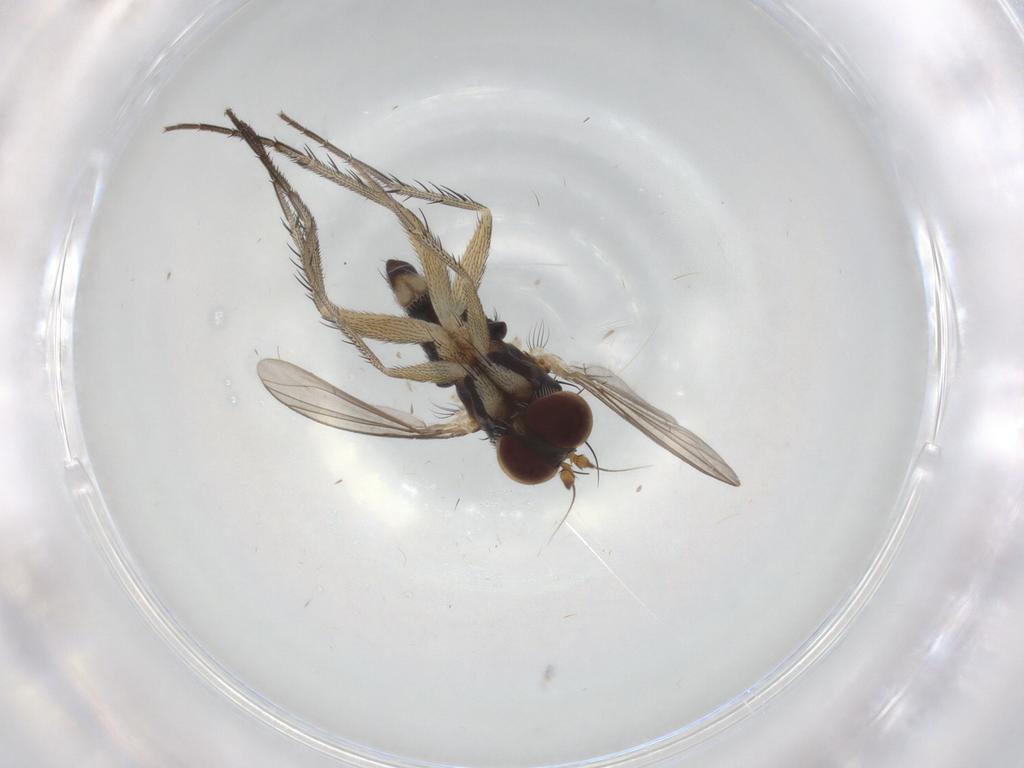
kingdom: Animalia
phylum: Arthropoda
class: Insecta
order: Diptera
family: Dolichopodidae
